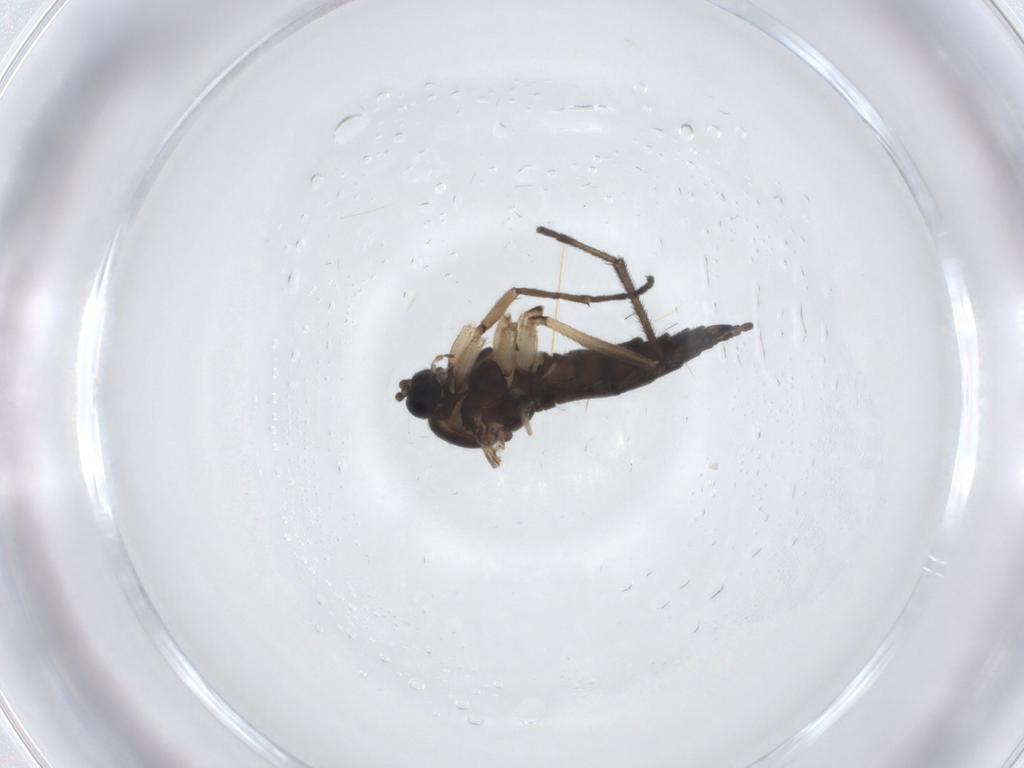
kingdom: Animalia
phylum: Arthropoda
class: Insecta
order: Diptera
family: Sciaridae
